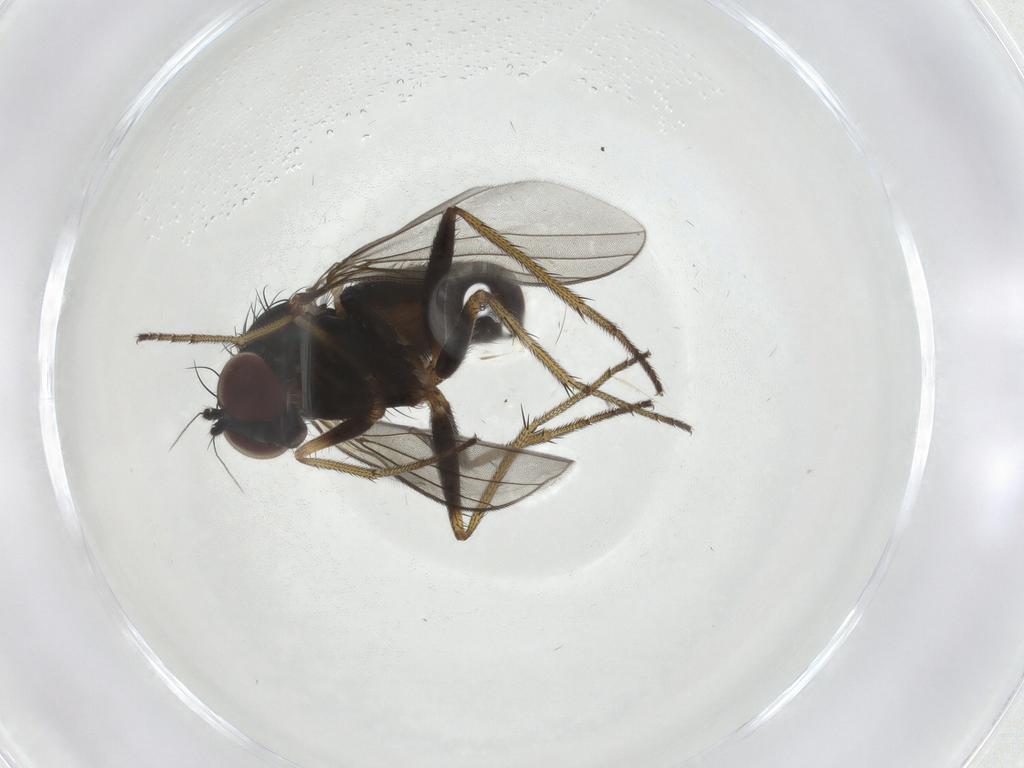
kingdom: Animalia
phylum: Arthropoda
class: Insecta
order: Diptera
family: Dolichopodidae
